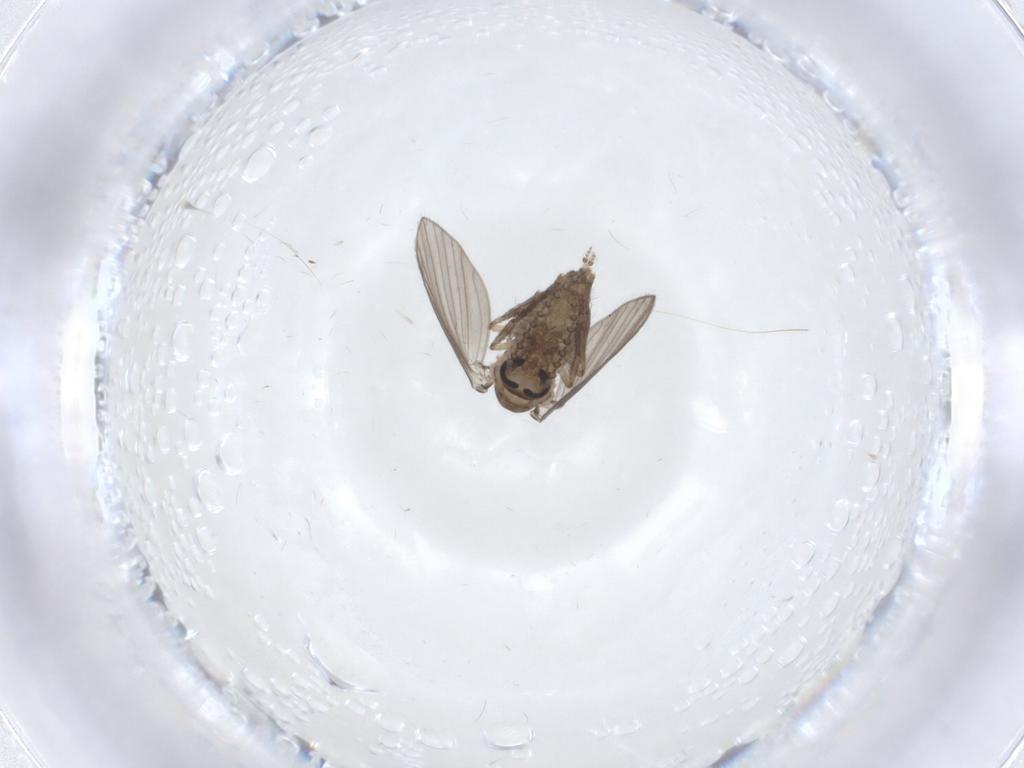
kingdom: Animalia
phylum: Arthropoda
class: Insecta
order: Diptera
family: Psychodidae
